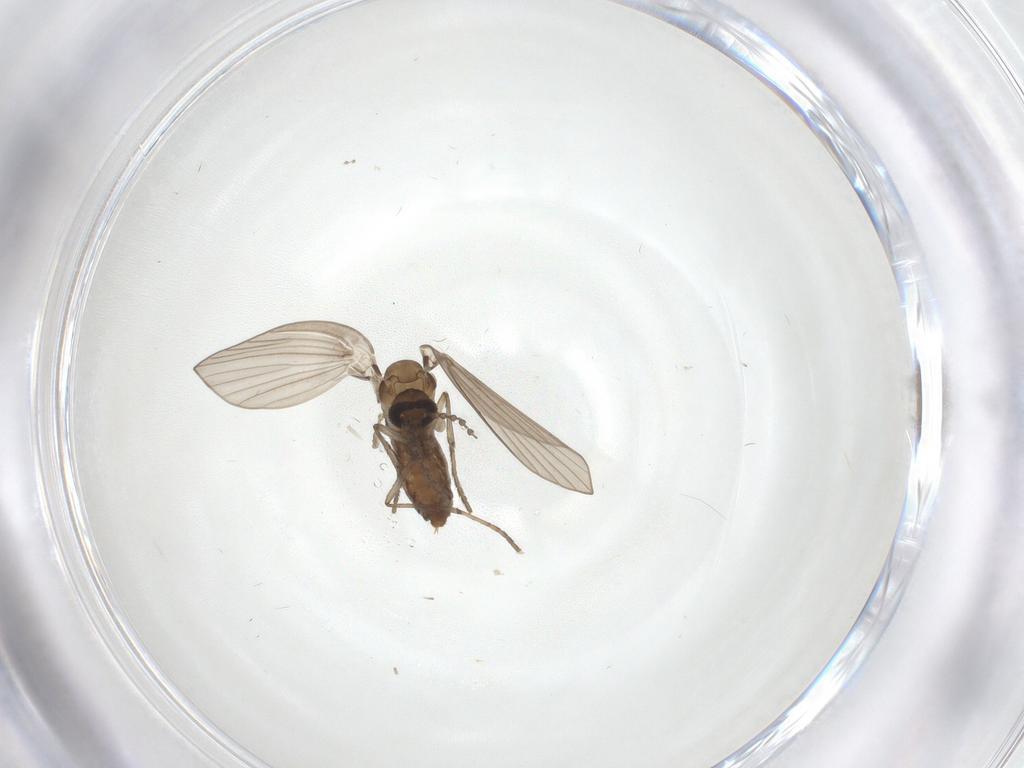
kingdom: Animalia
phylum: Arthropoda
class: Insecta
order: Diptera
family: Psychodidae
